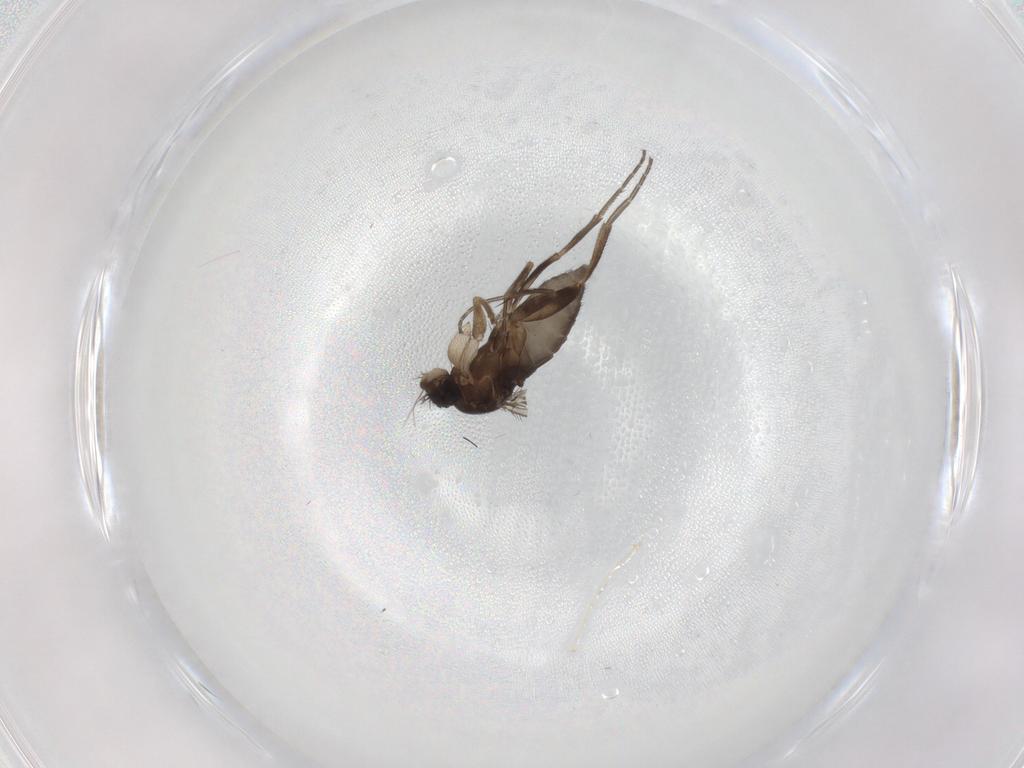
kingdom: Animalia
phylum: Arthropoda
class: Insecta
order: Diptera
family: Phoridae
